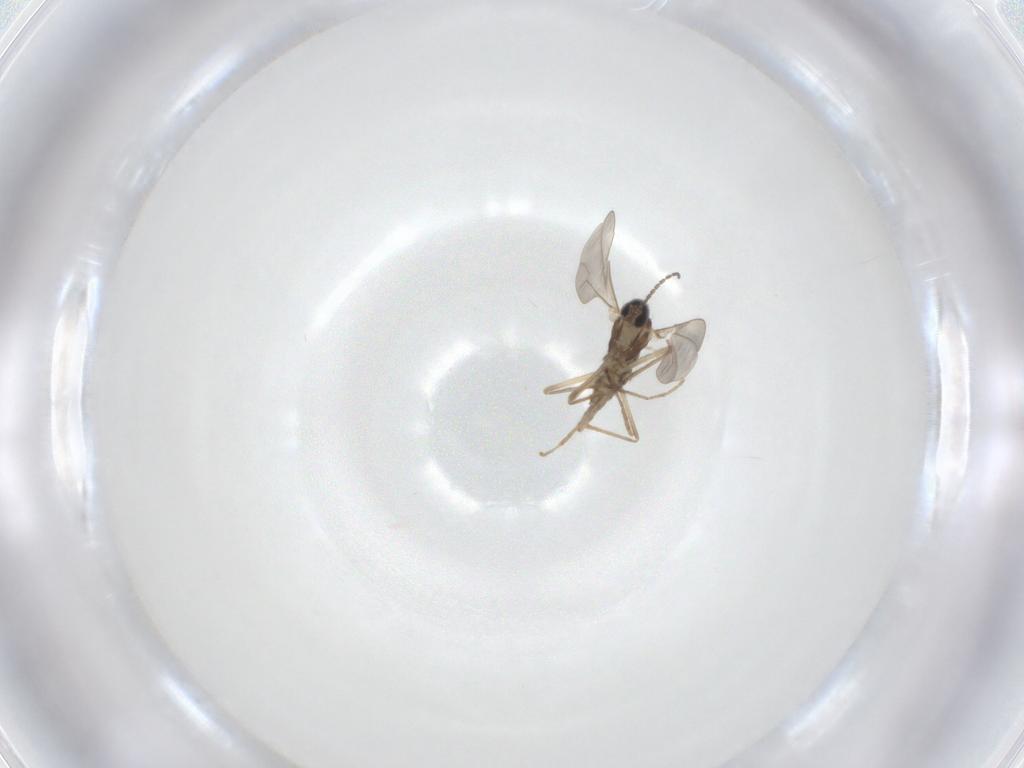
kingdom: Animalia
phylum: Arthropoda
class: Insecta
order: Diptera
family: Cecidomyiidae
